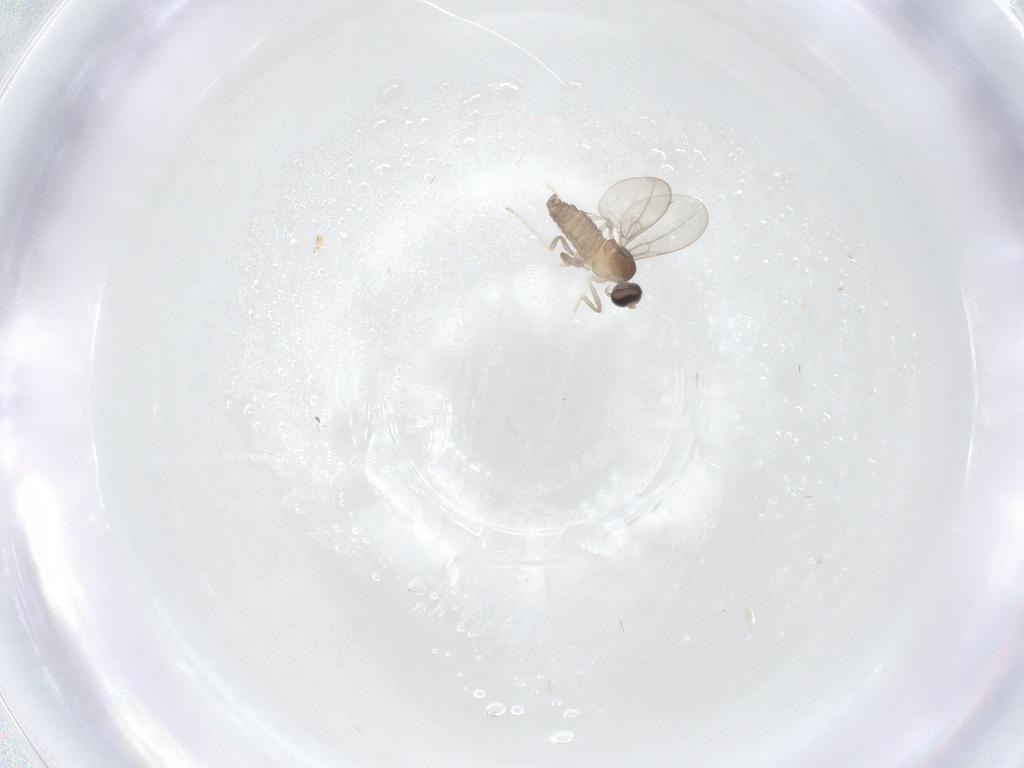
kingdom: Animalia
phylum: Arthropoda
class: Insecta
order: Diptera
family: Cecidomyiidae
